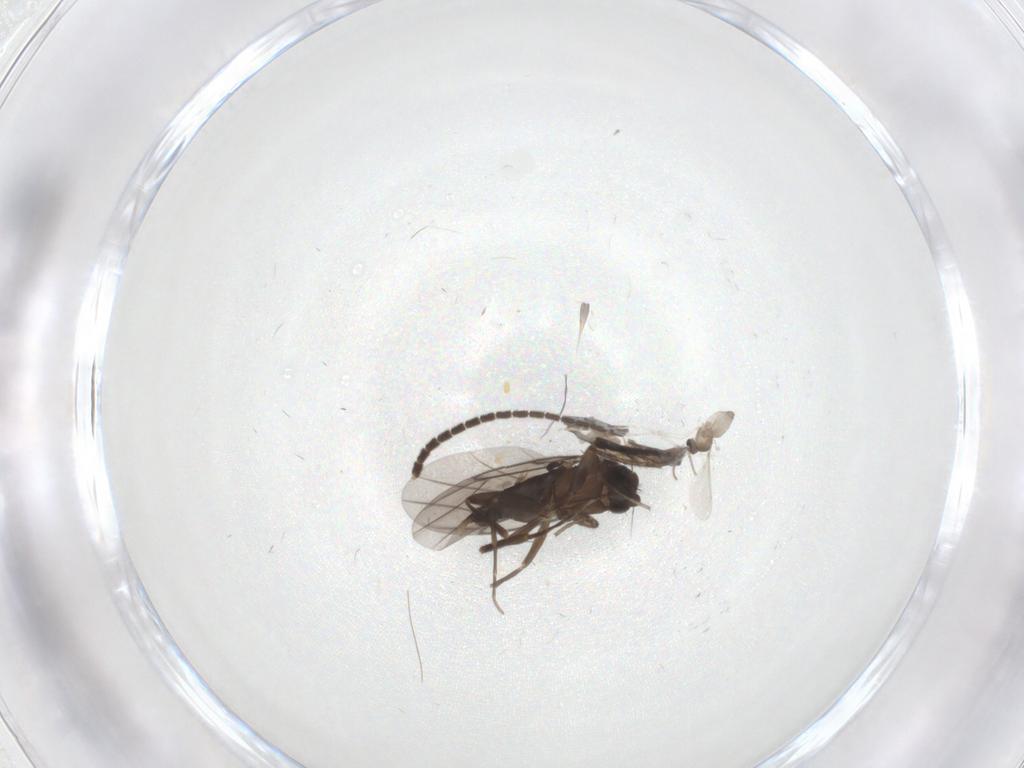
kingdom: Animalia
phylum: Arthropoda
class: Insecta
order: Diptera
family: Sciaridae
